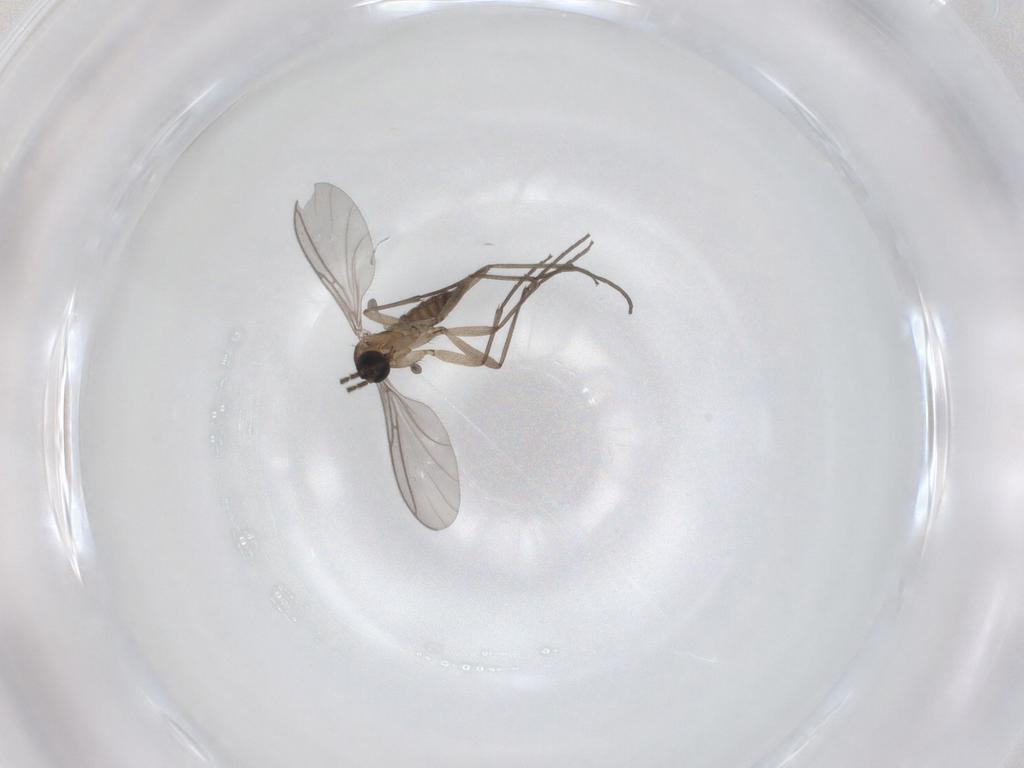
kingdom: Animalia
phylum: Arthropoda
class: Insecta
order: Diptera
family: Sciaridae
